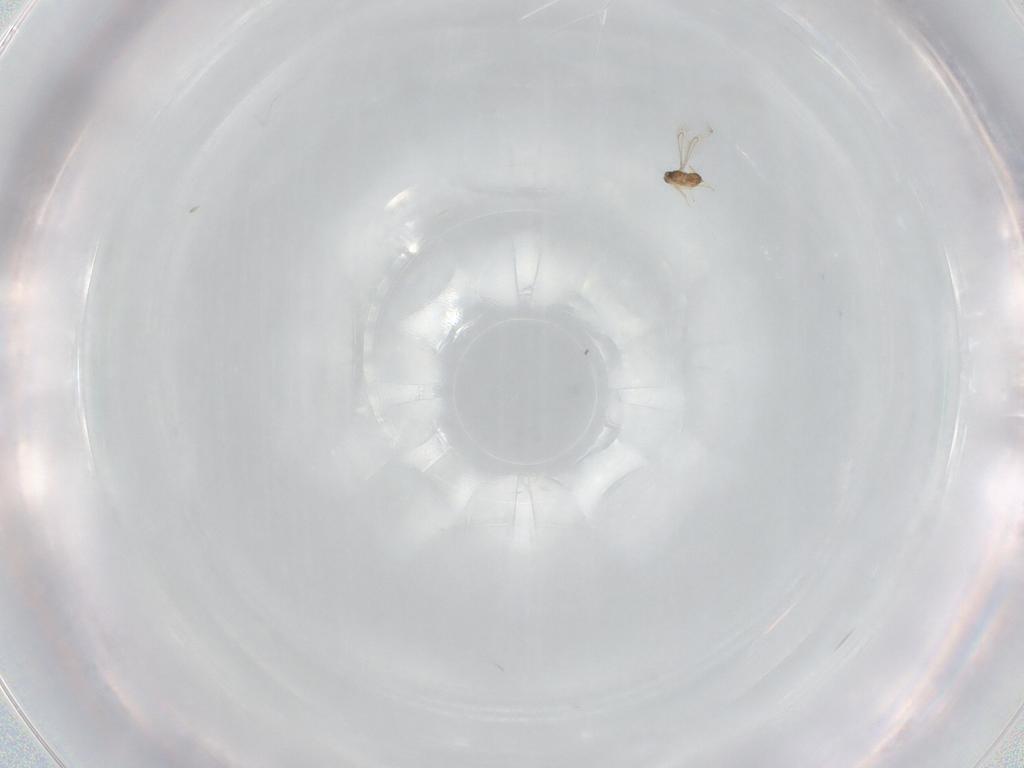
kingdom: Animalia
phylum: Arthropoda
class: Insecta
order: Hymenoptera
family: Mymaridae
